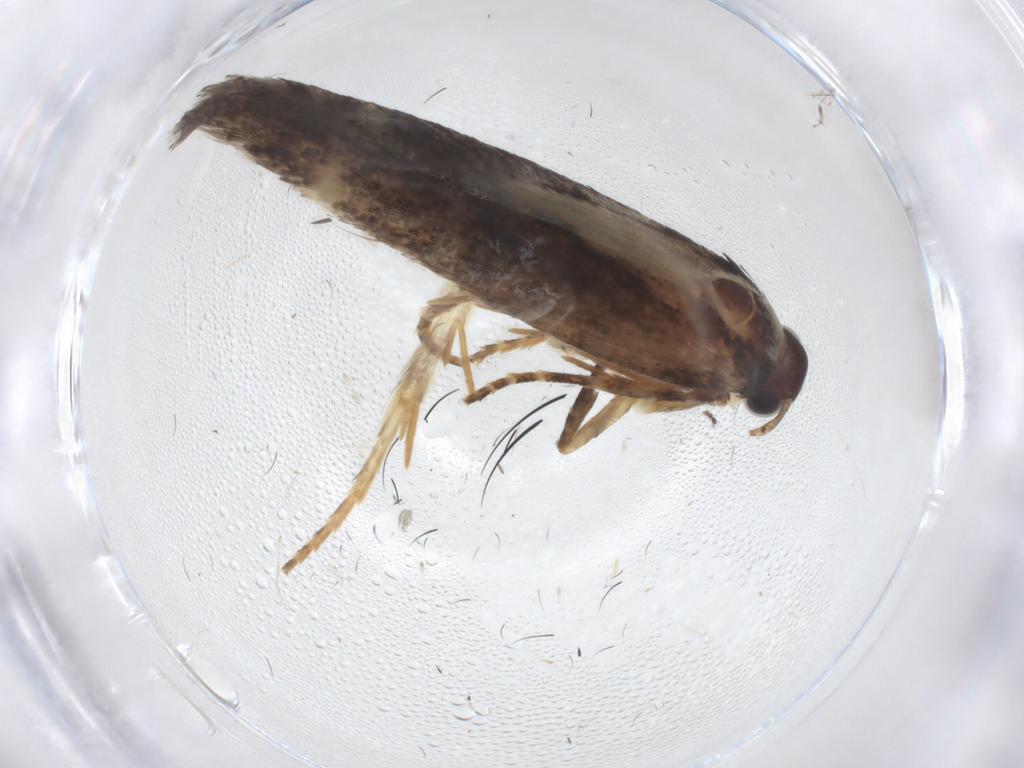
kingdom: Animalia
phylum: Arthropoda
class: Insecta
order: Lepidoptera
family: Gelechiidae
